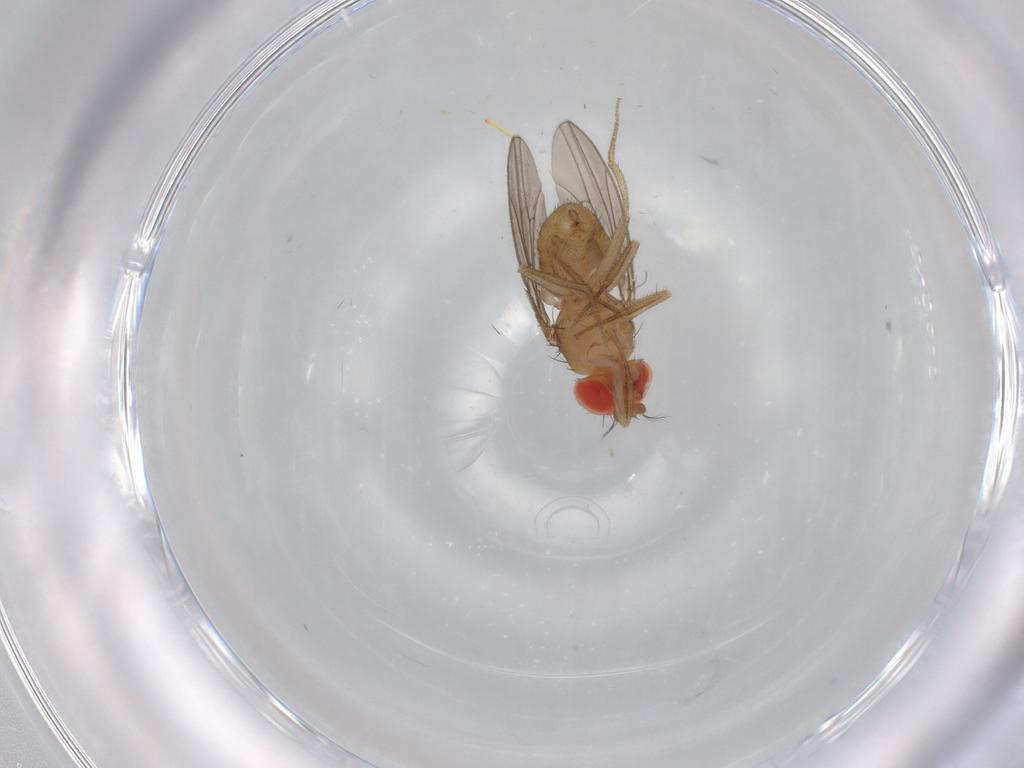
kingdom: Animalia
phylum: Arthropoda
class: Insecta
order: Diptera
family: Drosophilidae
